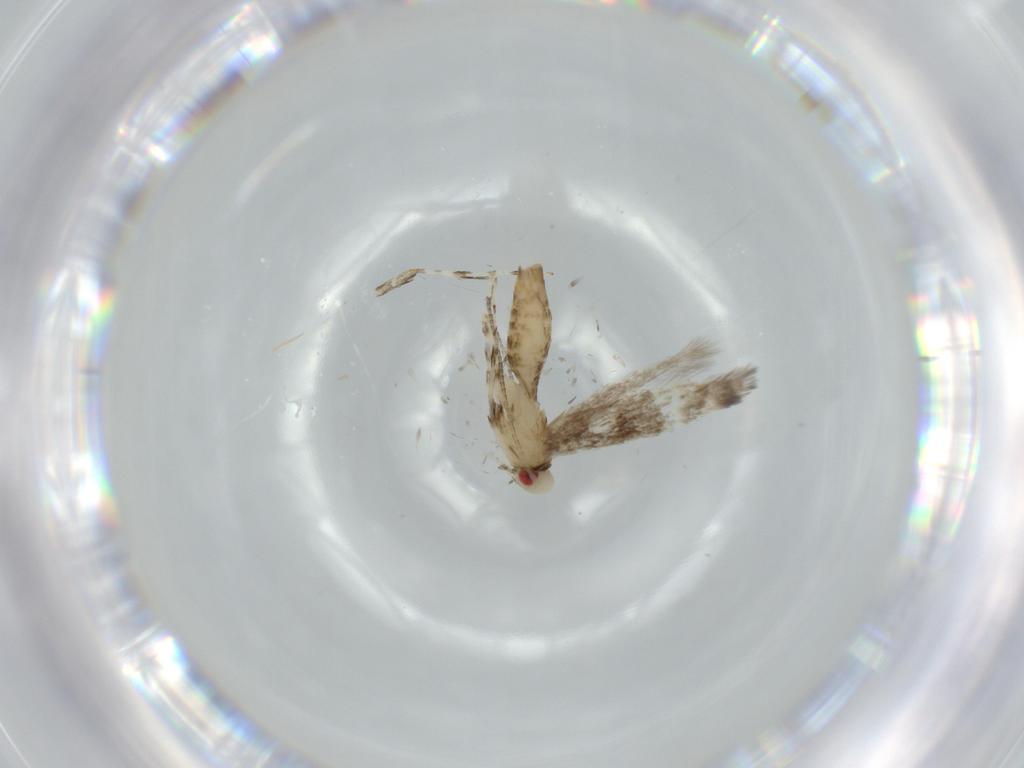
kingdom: Animalia
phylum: Arthropoda
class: Insecta
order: Lepidoptera
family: Gracillariidae
